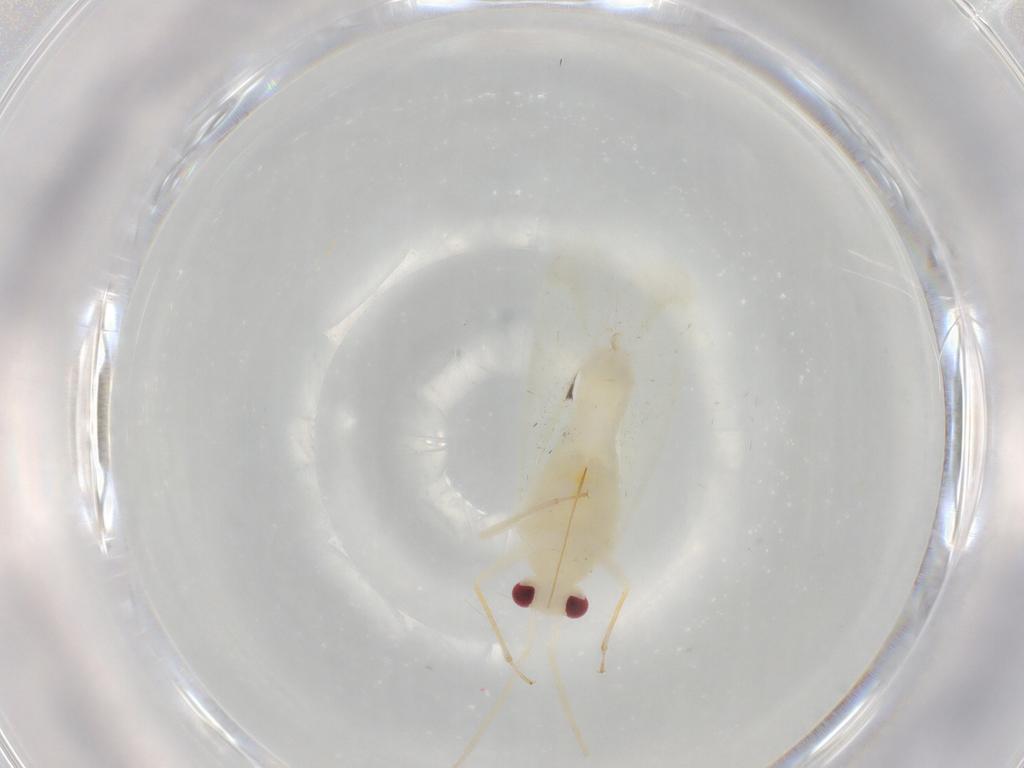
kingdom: Animalia
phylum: Arthropoda
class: Insecta
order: Hemiptera
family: Miridae
